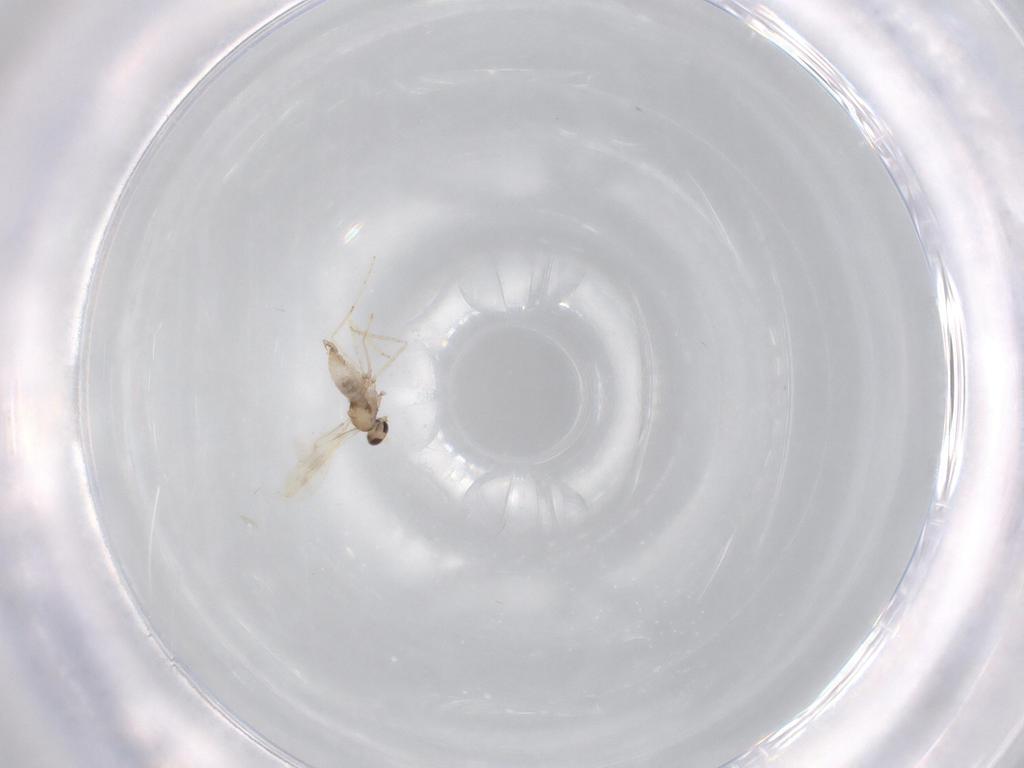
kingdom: Animalia
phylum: Arthropoda
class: Insecta
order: Diptera
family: Cecidomyiidae
